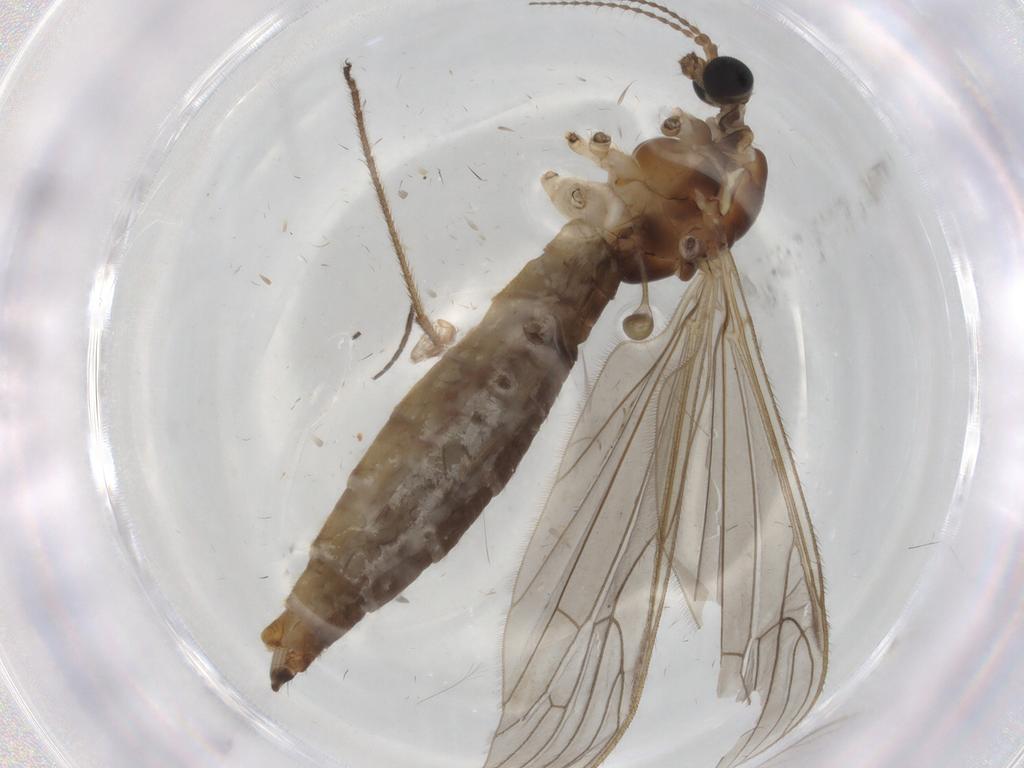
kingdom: Animalia
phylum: Arthropoda
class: Insecta
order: Diptera
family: Cecidomyiidae
